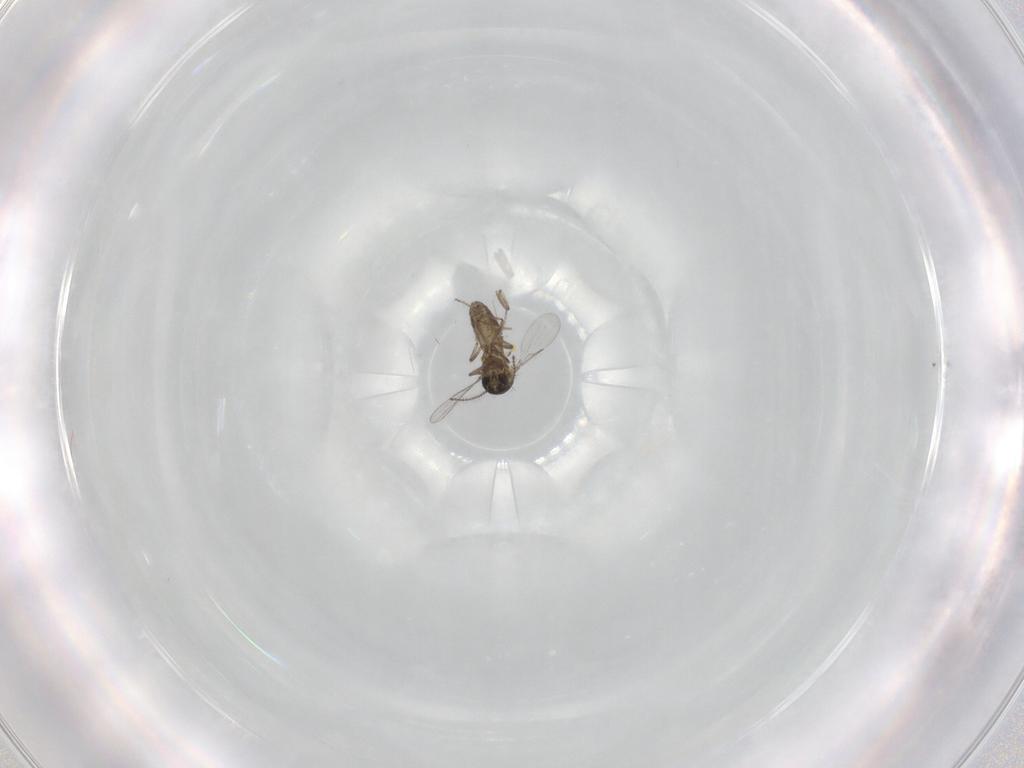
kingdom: Animalia
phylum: Arthropoda
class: Insecta
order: Diptera
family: Ceratopogonidae
